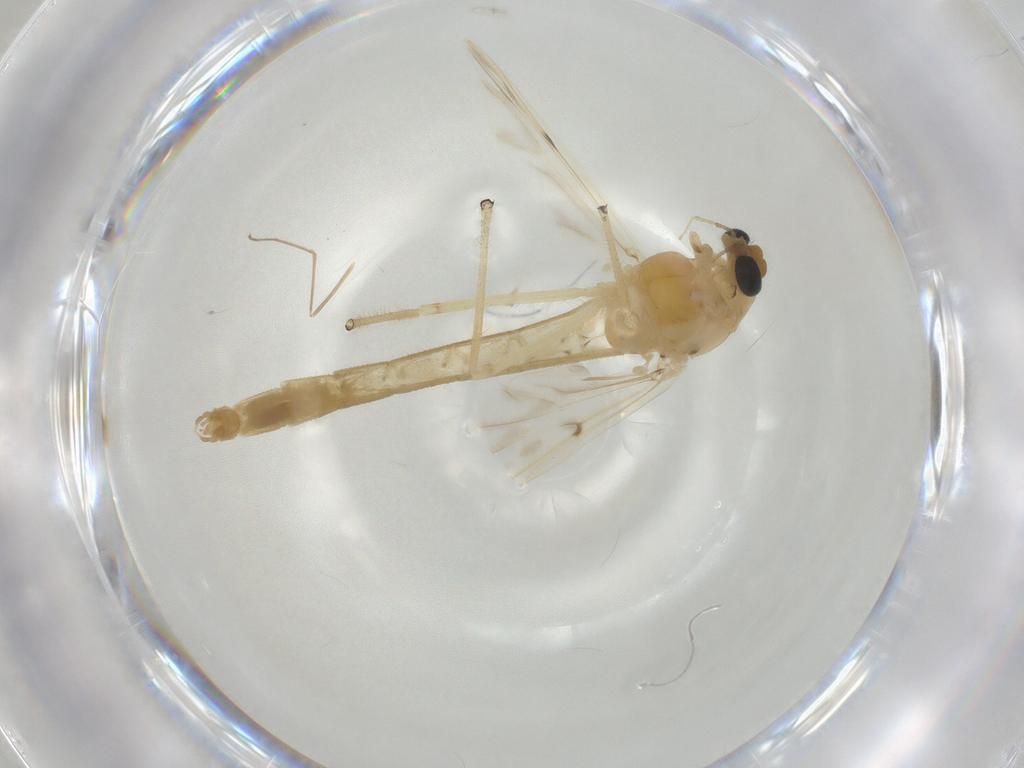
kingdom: Animalia
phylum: Arthropoda
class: Insecta
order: Diptera
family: Chironomidae
